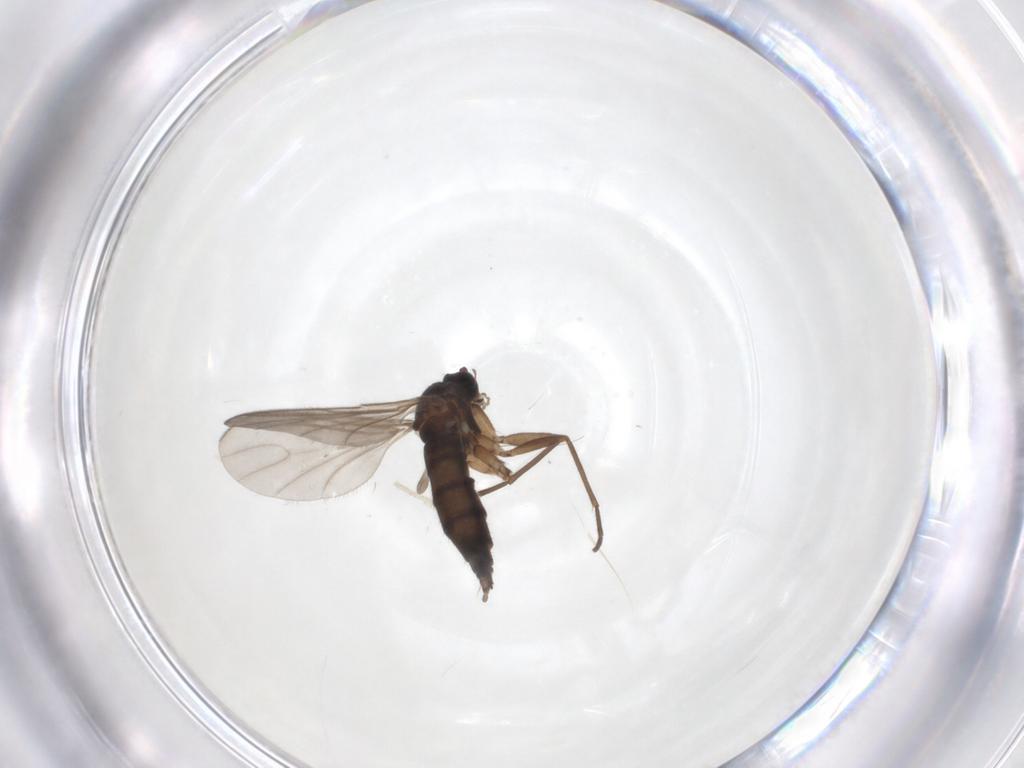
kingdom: Animalia
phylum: Arthropoda
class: Insecta
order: Diptera
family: Sciaridae
